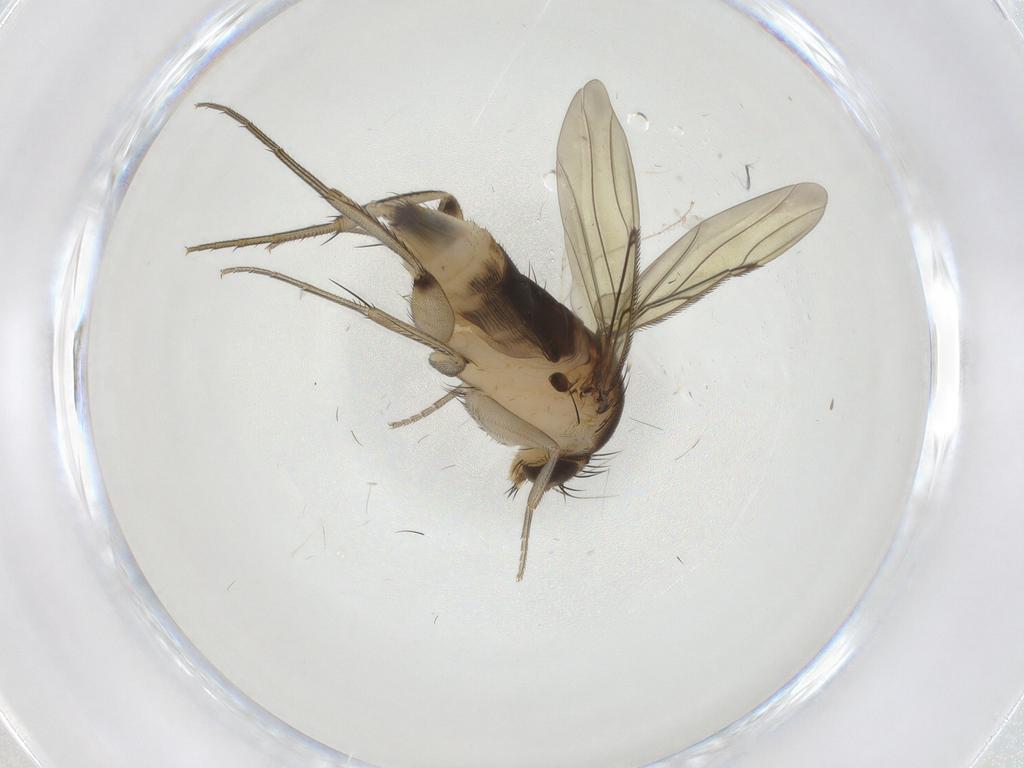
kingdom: Animalia
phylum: Arthropoda
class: Insecta
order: Diptera
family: Phoridae
